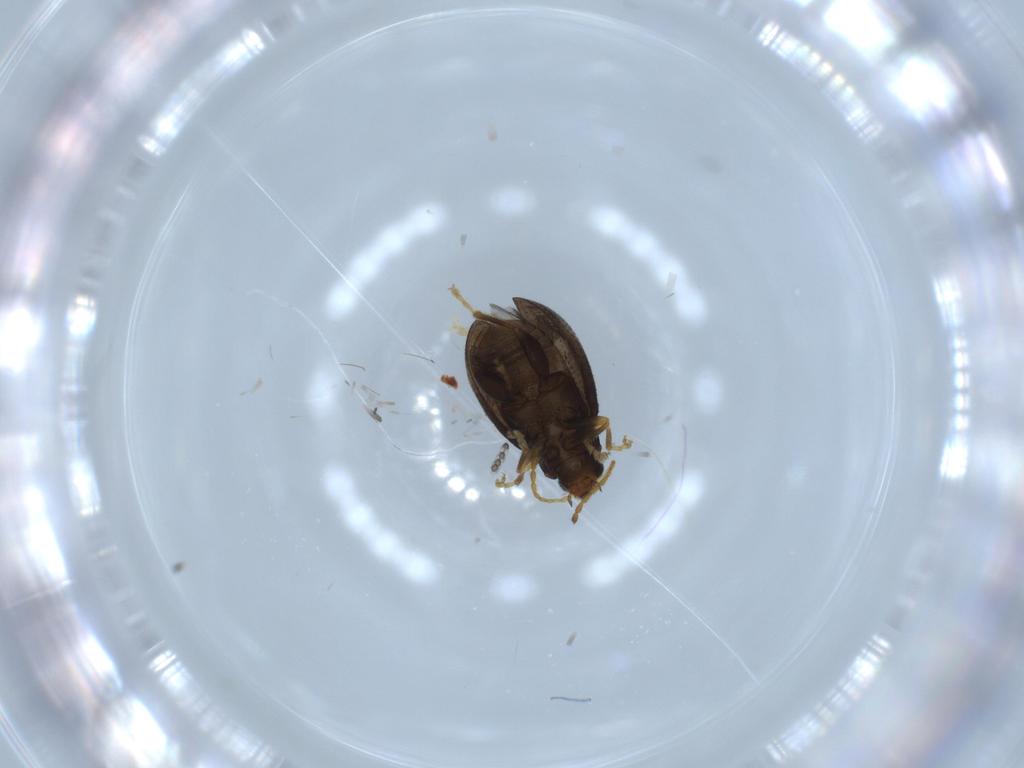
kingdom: Animalia
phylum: Arthropoda
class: Insecta
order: Coleoptera
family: Chrysomelidae
